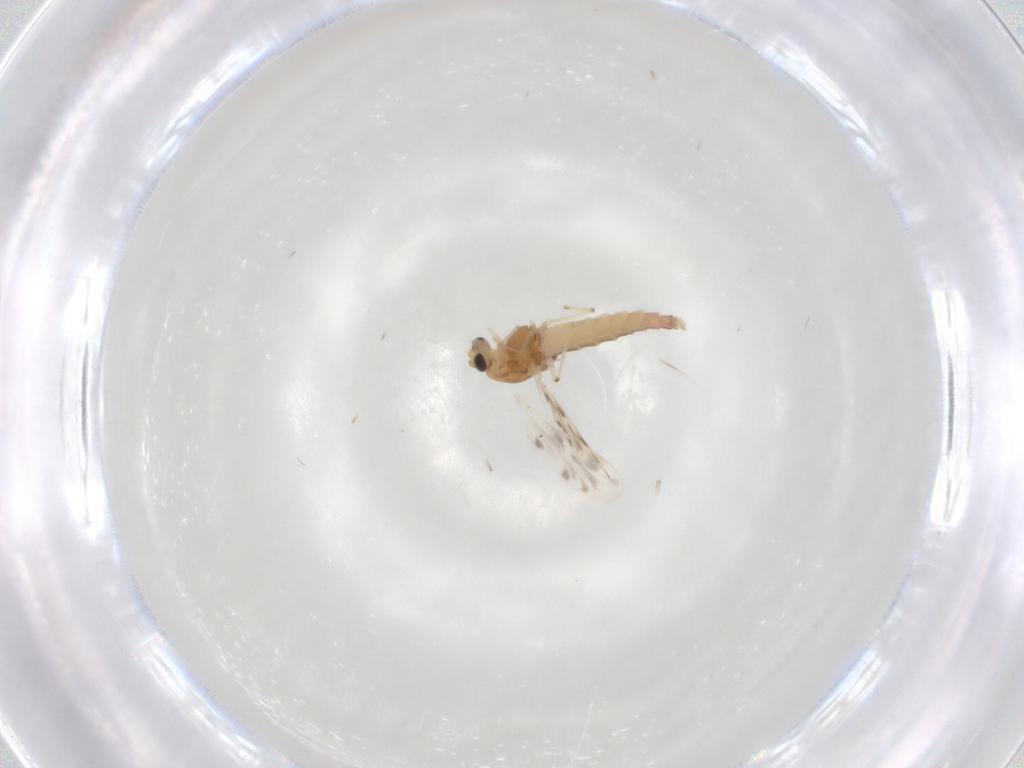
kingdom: Animalia
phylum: Arthropoda
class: Insecta
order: Diptera
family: Chironomidae
